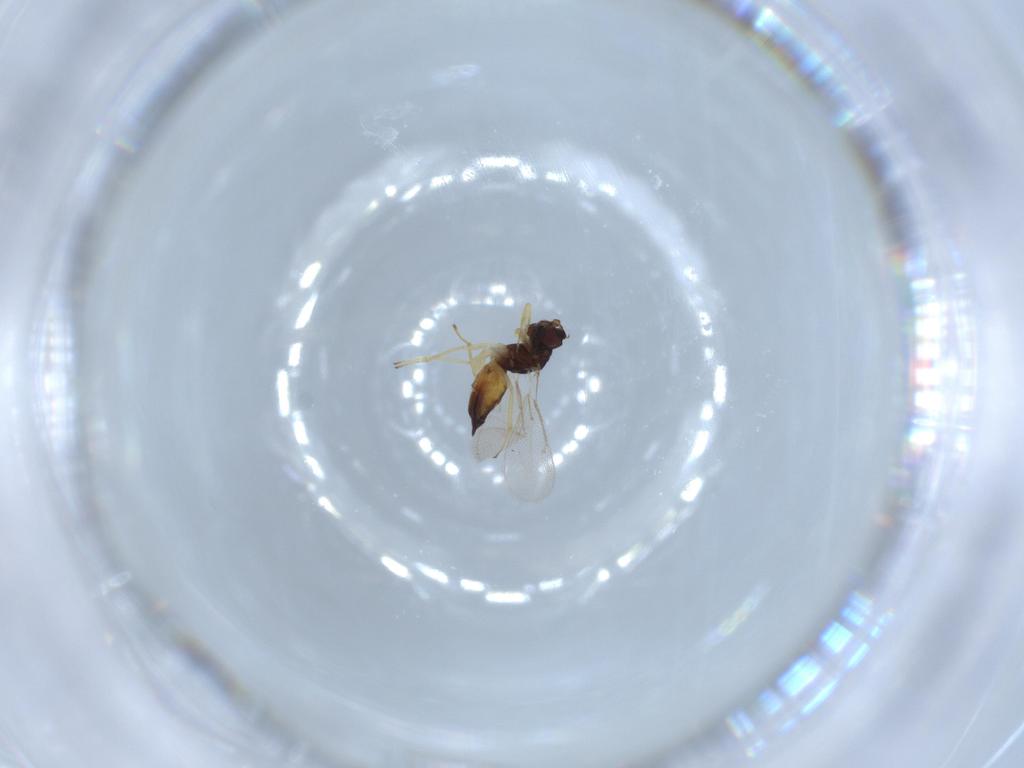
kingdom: Animalia
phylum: Arthropoda
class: Insecta
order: Hymenoptera
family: Eulophidae
